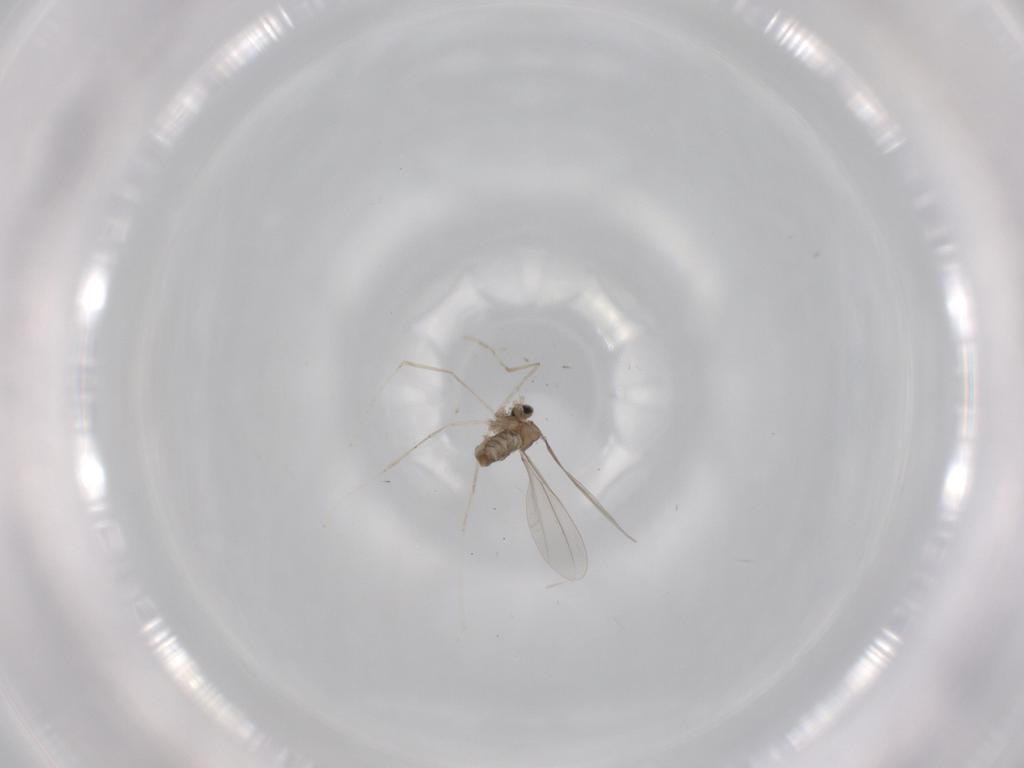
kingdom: Animalia
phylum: Arthropoda
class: Insecta
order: Diptera
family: Cecidomyiidae
